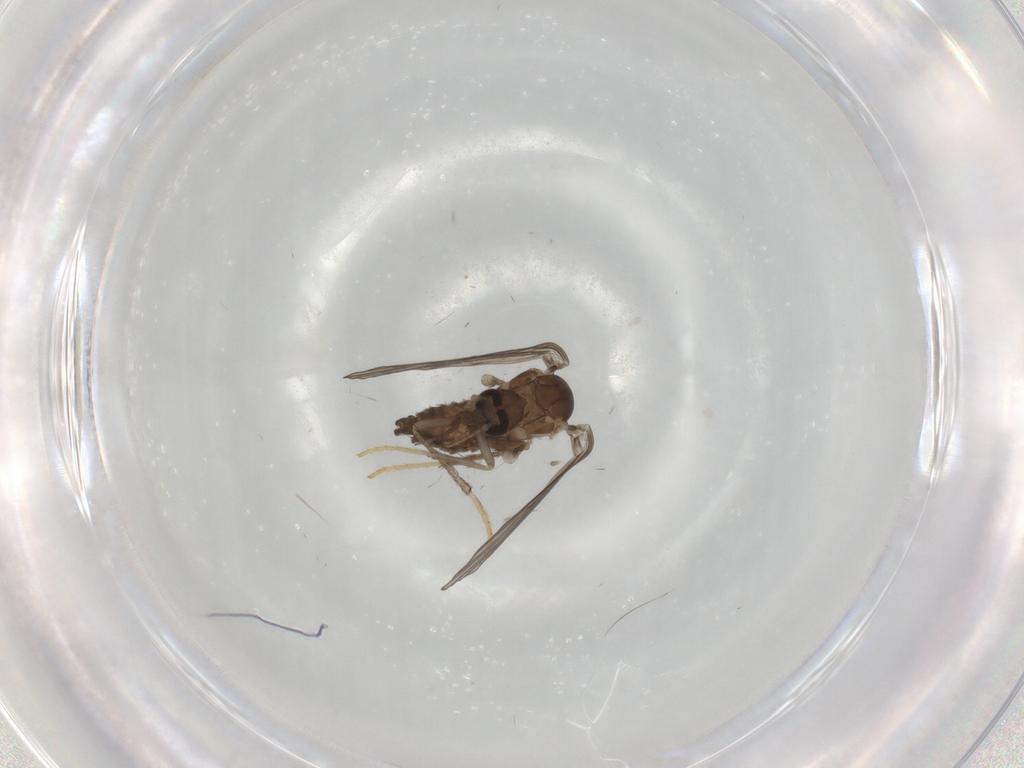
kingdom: Animalia
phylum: Arthropoda
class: Insecta
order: Diptera
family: Psychodidae
